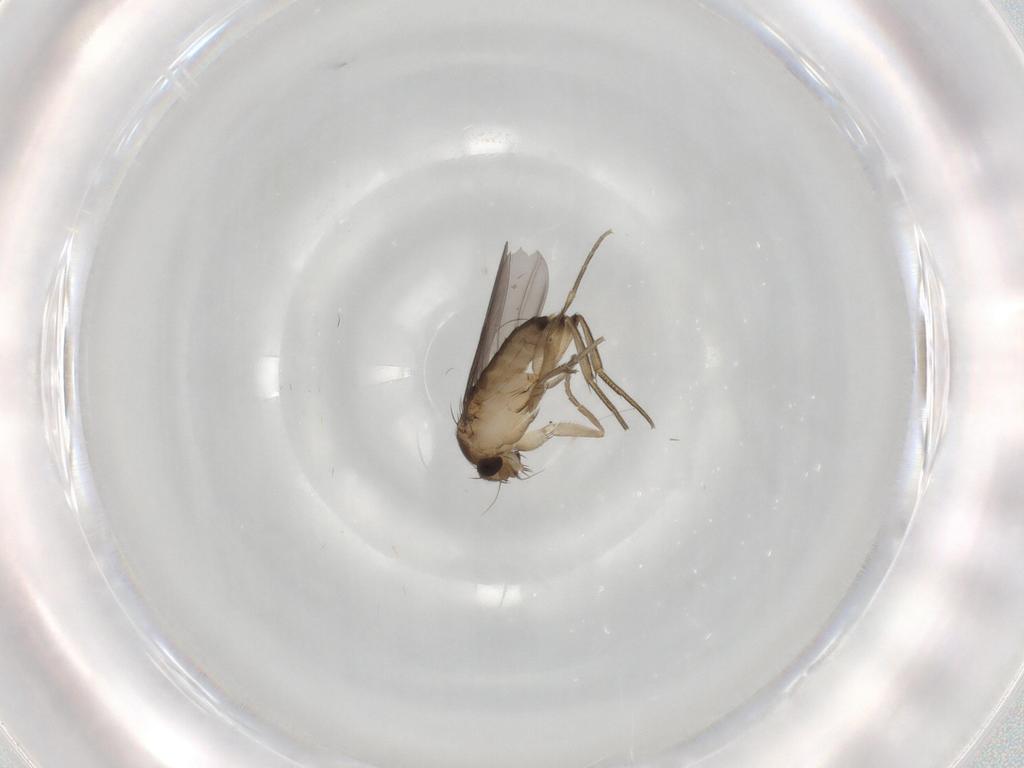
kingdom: Animalia
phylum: Arthropoda
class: Insecta
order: Diptera
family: Phoridae
